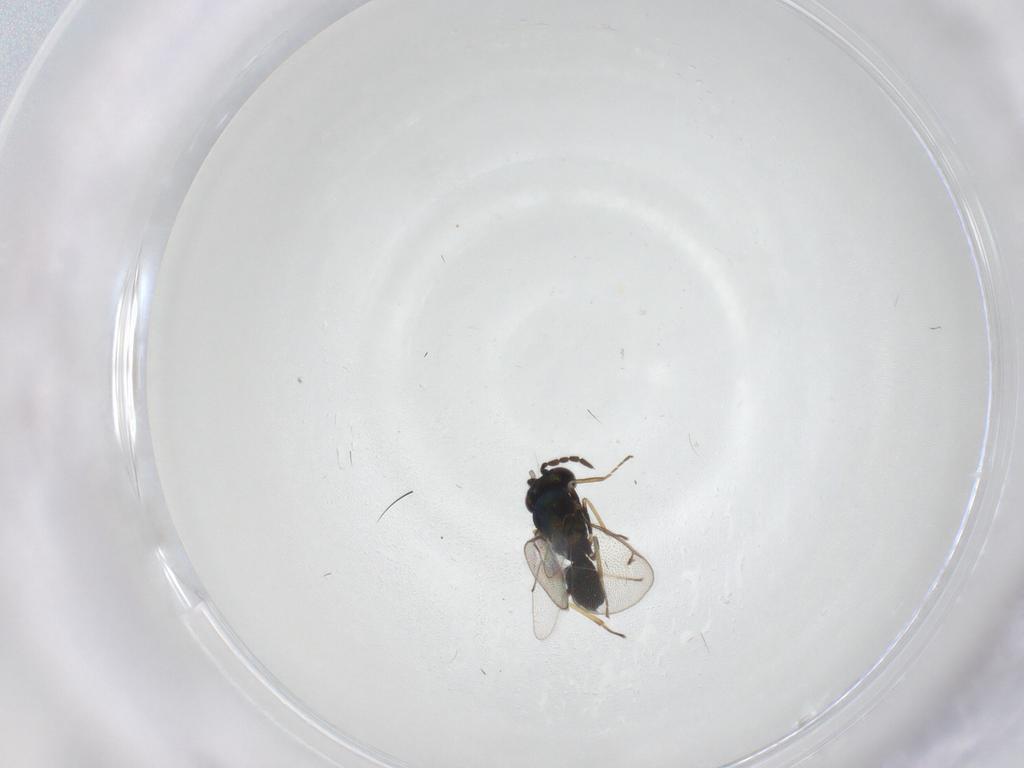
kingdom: Animalia
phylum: Arthropoda
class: Insecta
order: Hymenoptera
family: Eulophidae
